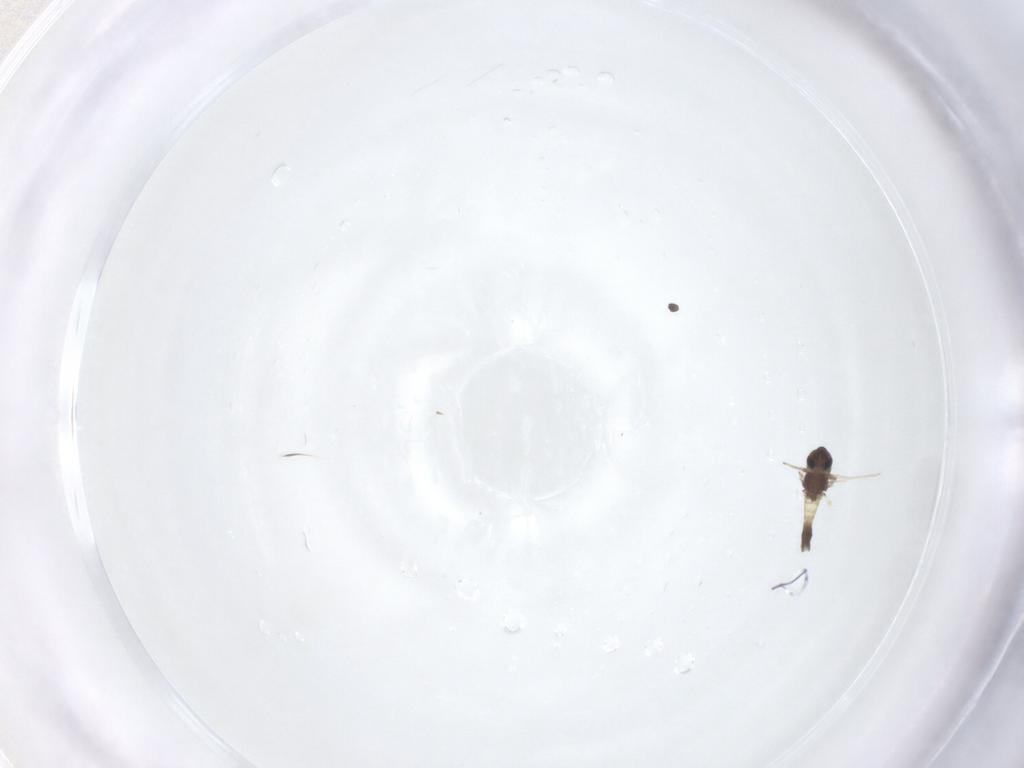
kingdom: Animalia
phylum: Arthropoda
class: Insecta
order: Diptera
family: Chironomidae
